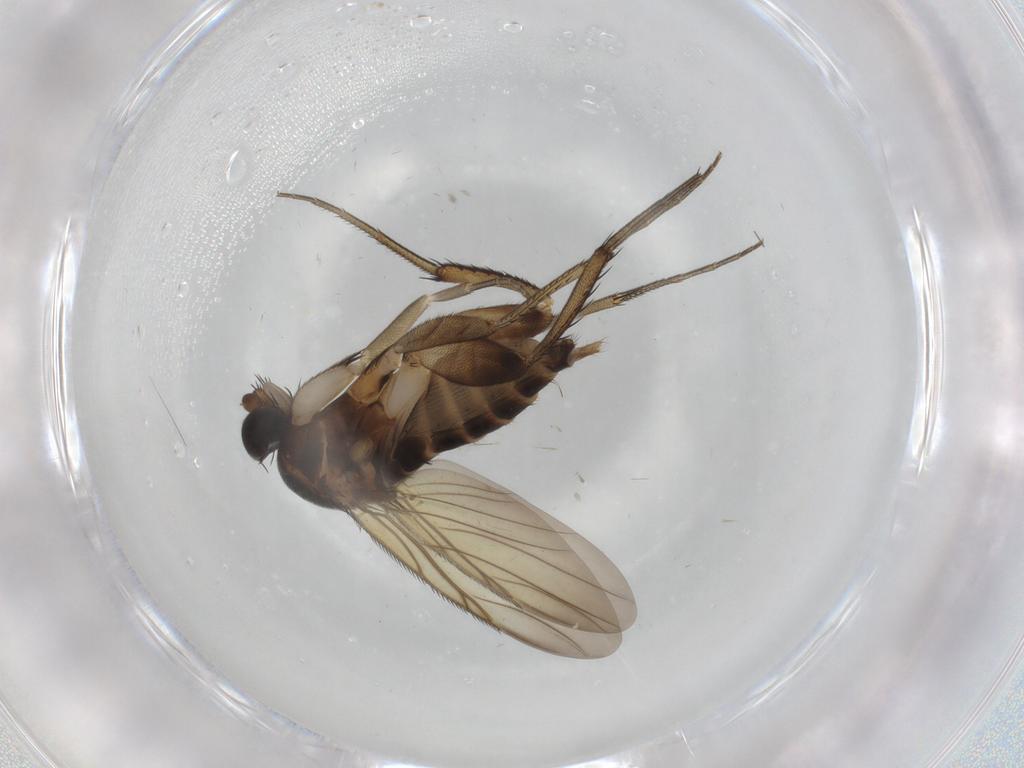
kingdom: Animalia
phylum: Arthropoda
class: Insecta
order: Diptera
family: Phoridae
